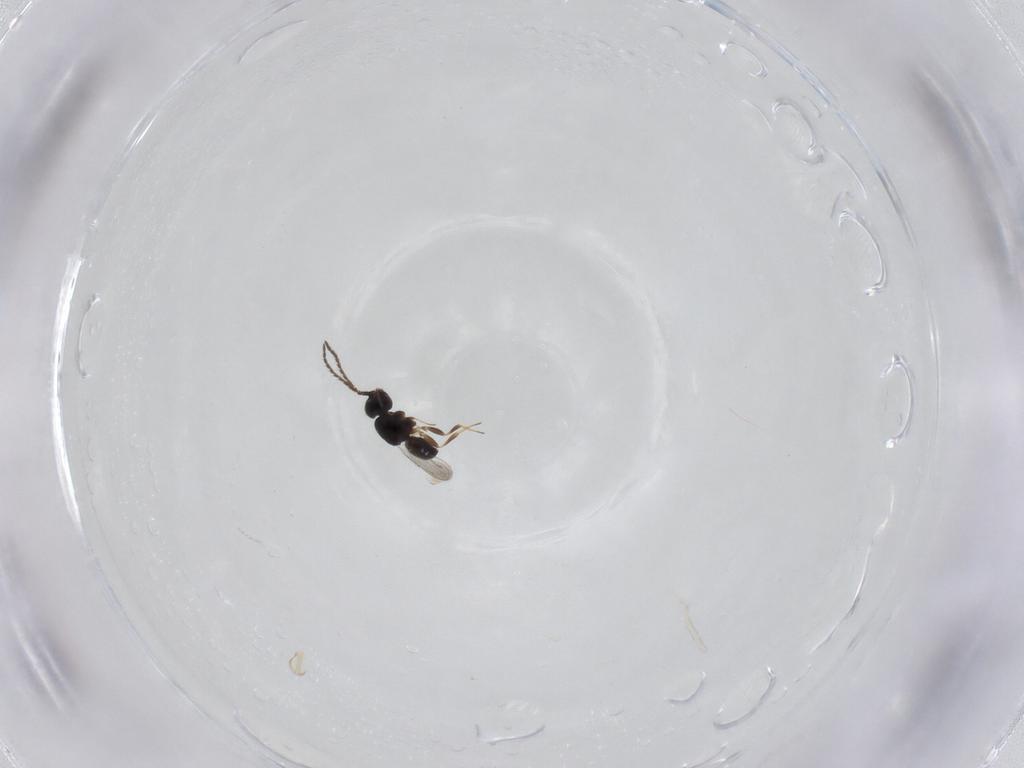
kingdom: Animalia
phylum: Arthropoda
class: Insecta
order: Hymenoptera
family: Ceraphronidae
